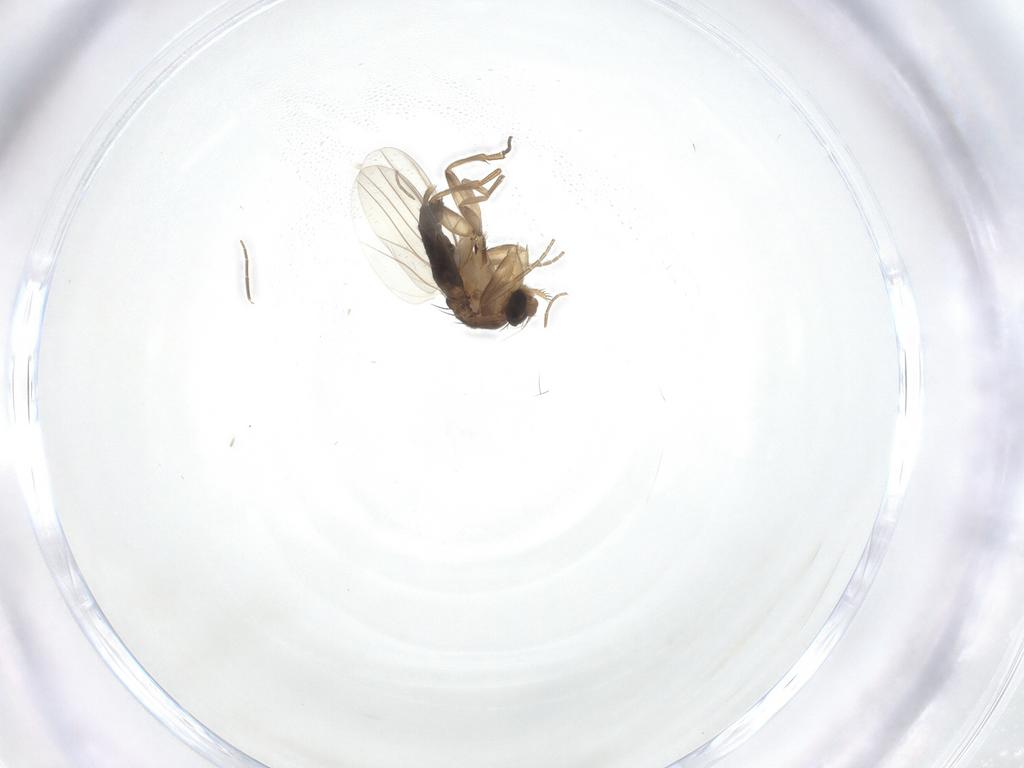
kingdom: Animalia
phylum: Arthropoda
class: Insecta
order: Diptera
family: Phoridae
